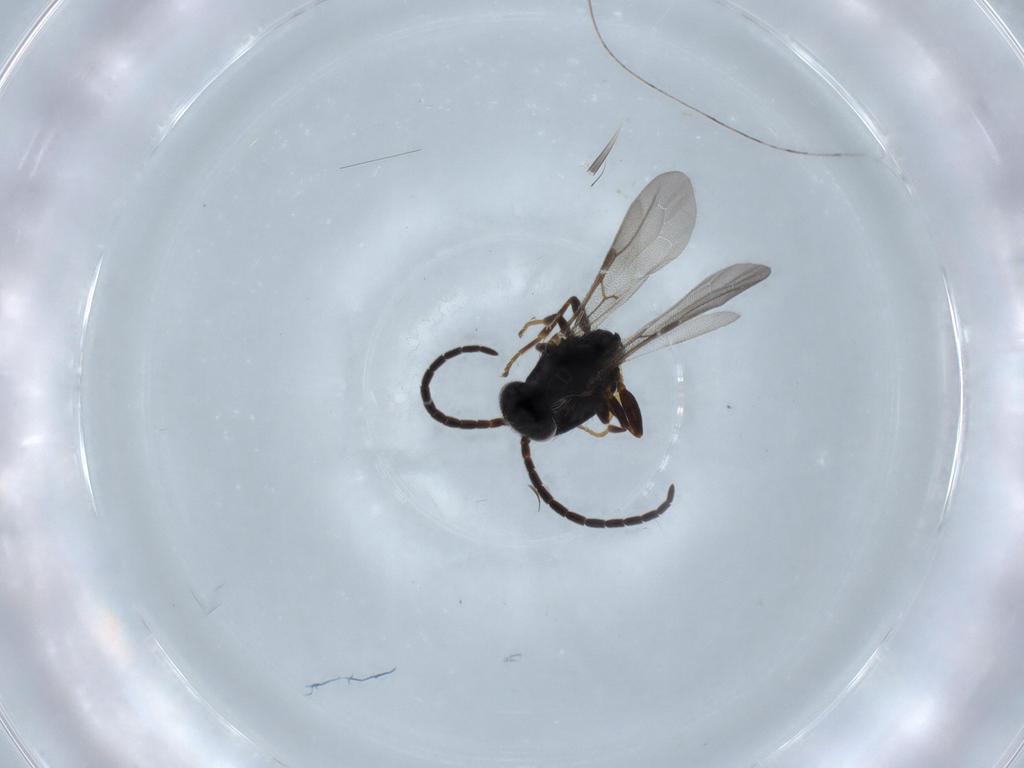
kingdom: Animalia
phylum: Arthropoda
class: Insecta
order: Hymenoptera
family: Bethylidae
